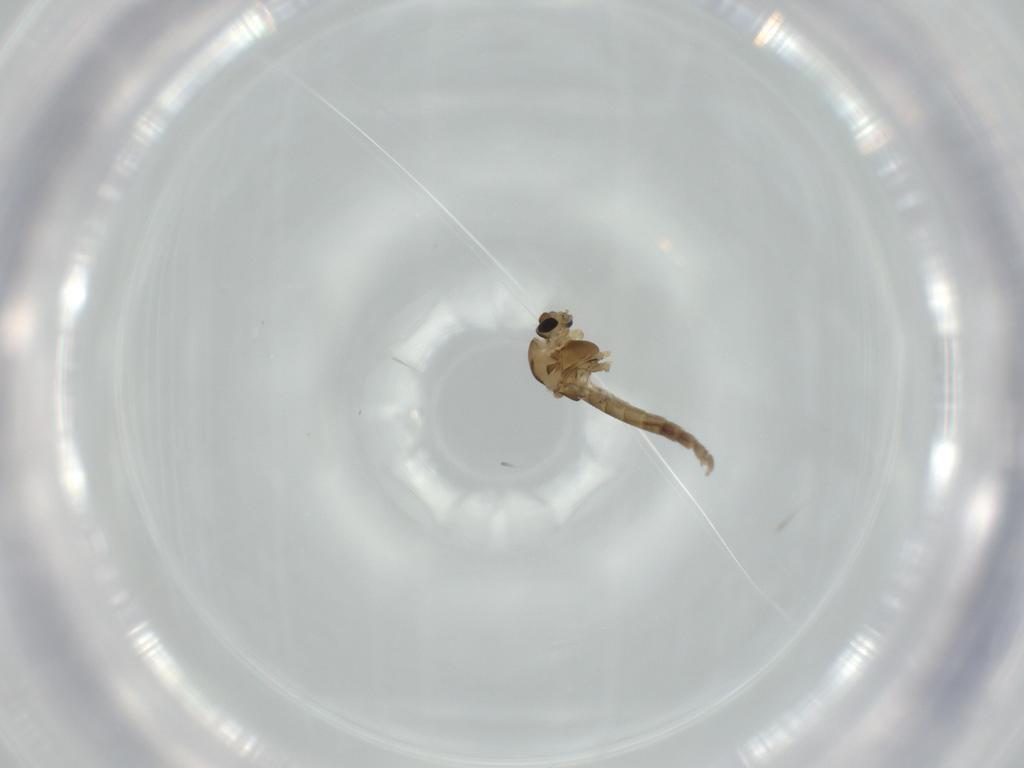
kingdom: Animalia
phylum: Arthropoda
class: Insecta
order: Diptera
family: Chironomidae
